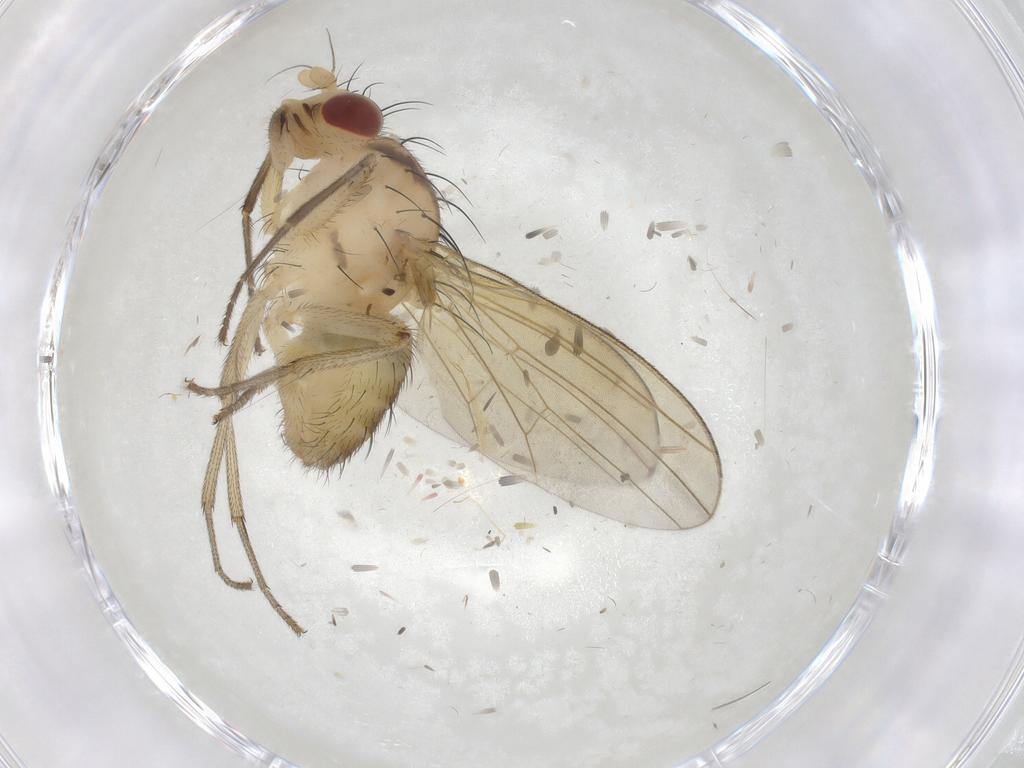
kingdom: Animalia
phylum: Arthropoda
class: Insecta
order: Diptera
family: Lauxaniidae
